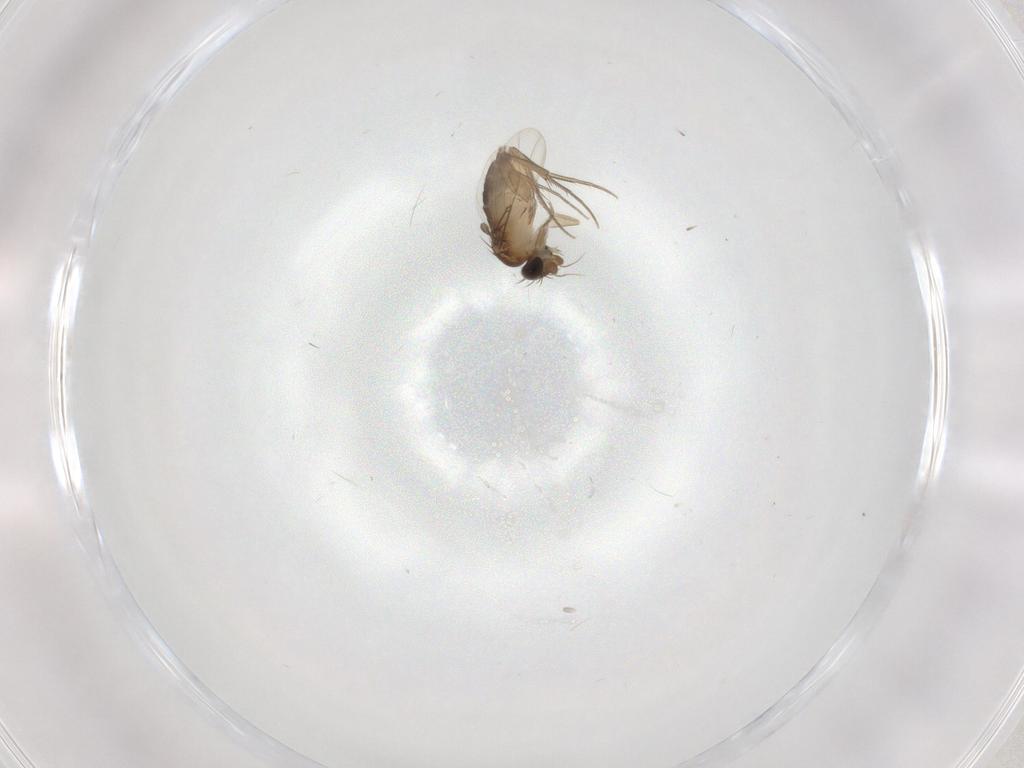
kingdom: Animalia
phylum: Arthropoda
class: Insecta
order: Diptera
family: Phoridae
